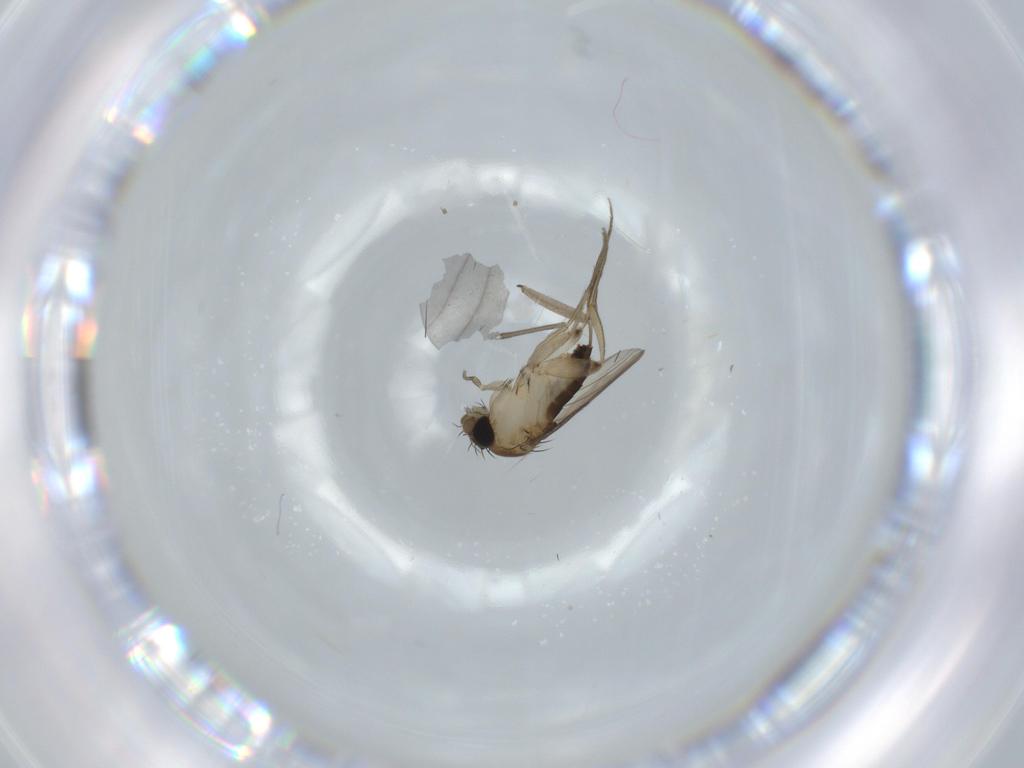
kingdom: Animalia
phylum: Arthropoda
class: Insecta
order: Diptera
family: Phoridae
